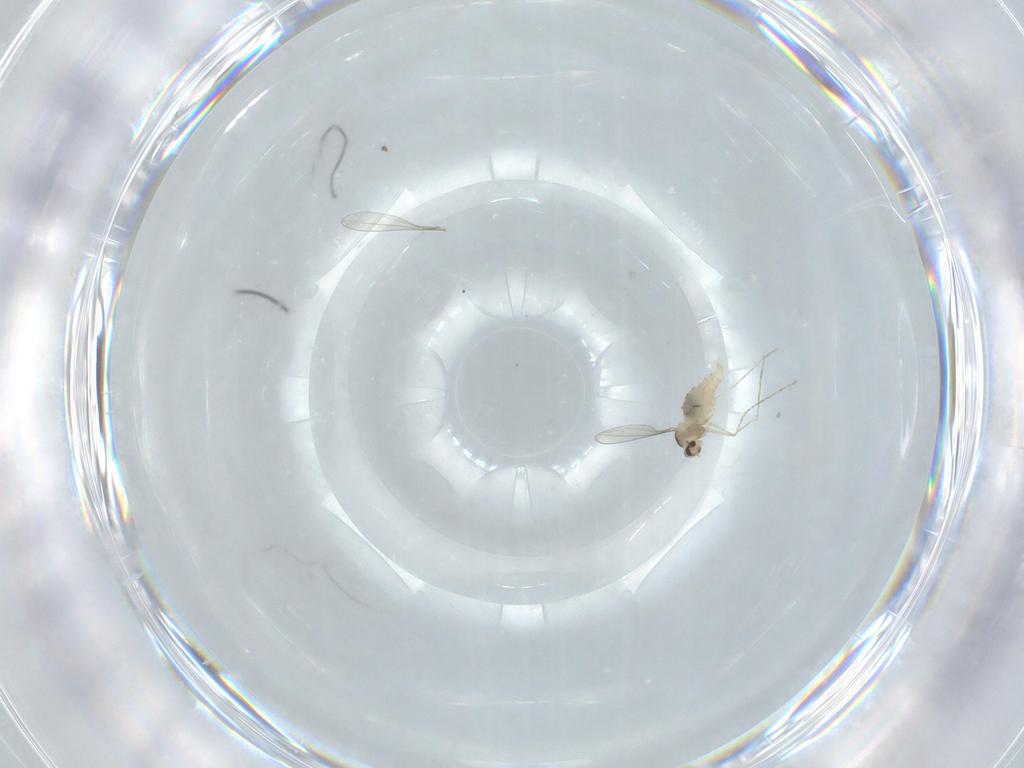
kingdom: Animalia
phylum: Arthropoda
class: Insecta
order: Diptera
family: Cecidomyiidae
